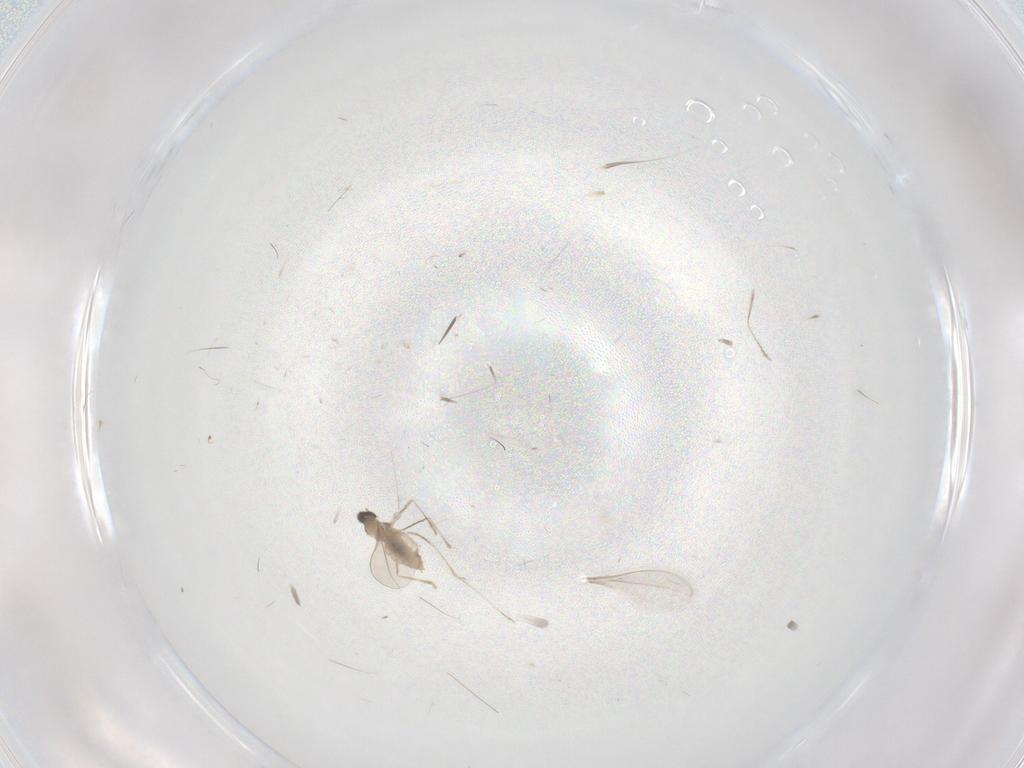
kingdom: Animalia
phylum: Arthropoda
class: Insecta
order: Diptera
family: Cecidomyiidae
